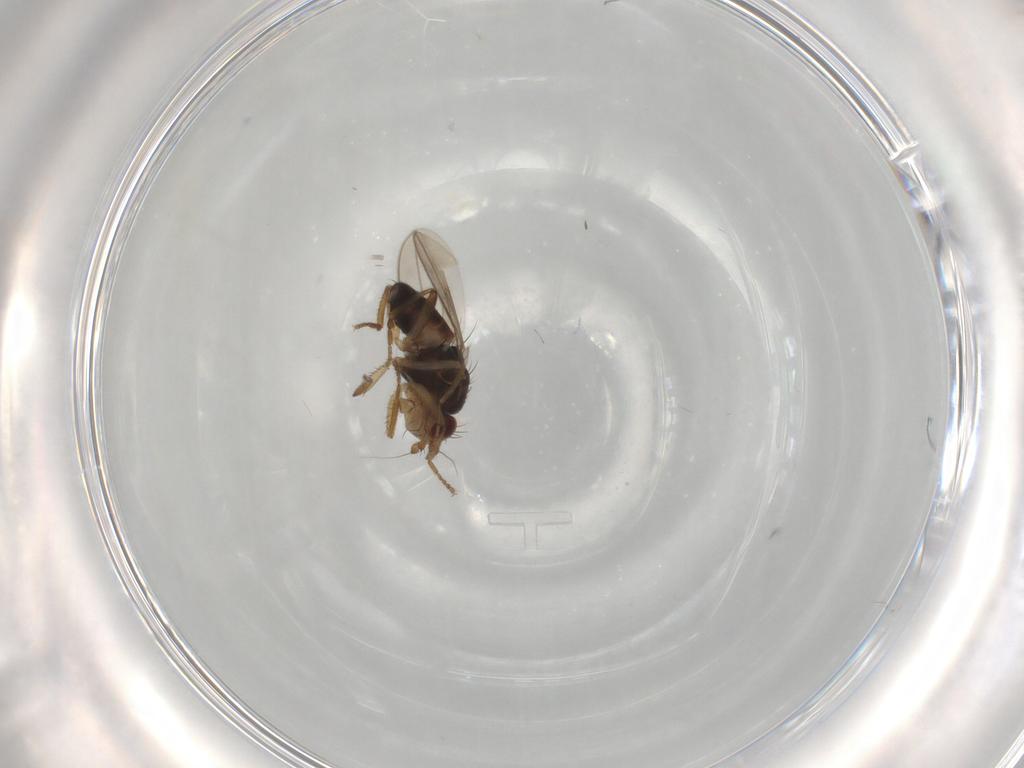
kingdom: Animalia
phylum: Arthropoda
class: Insecta
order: Diptera
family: Sphaeroceridae
